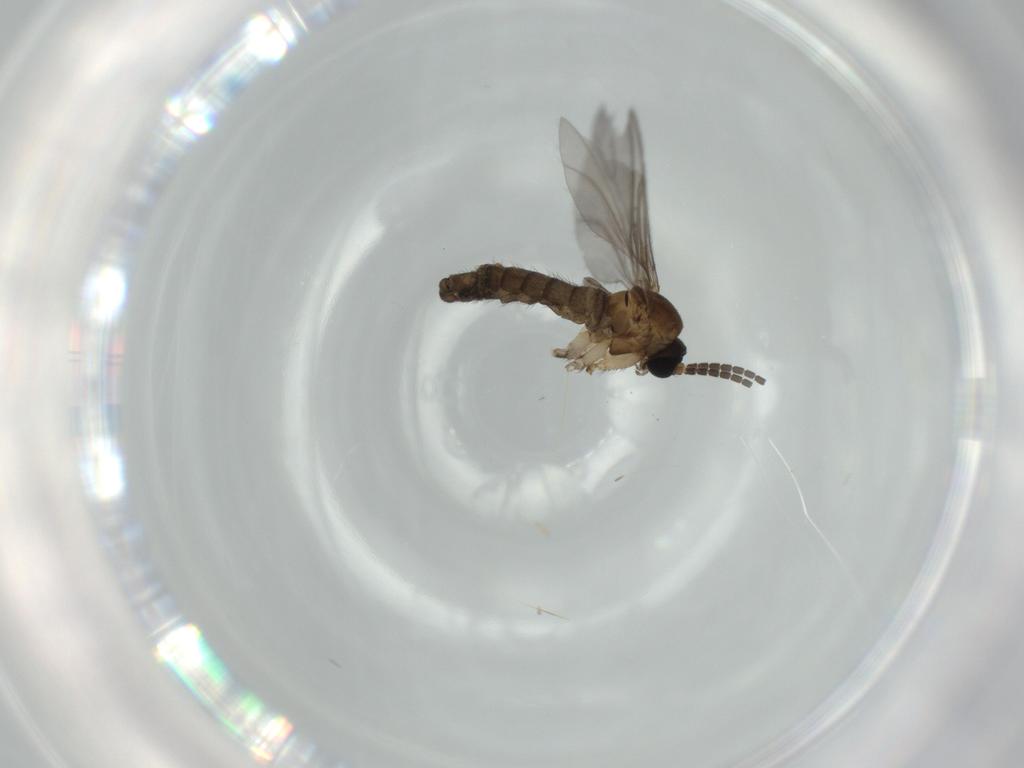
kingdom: Animalia
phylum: Arthropoda
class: Insecta
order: Diptera
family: Sciaridae
